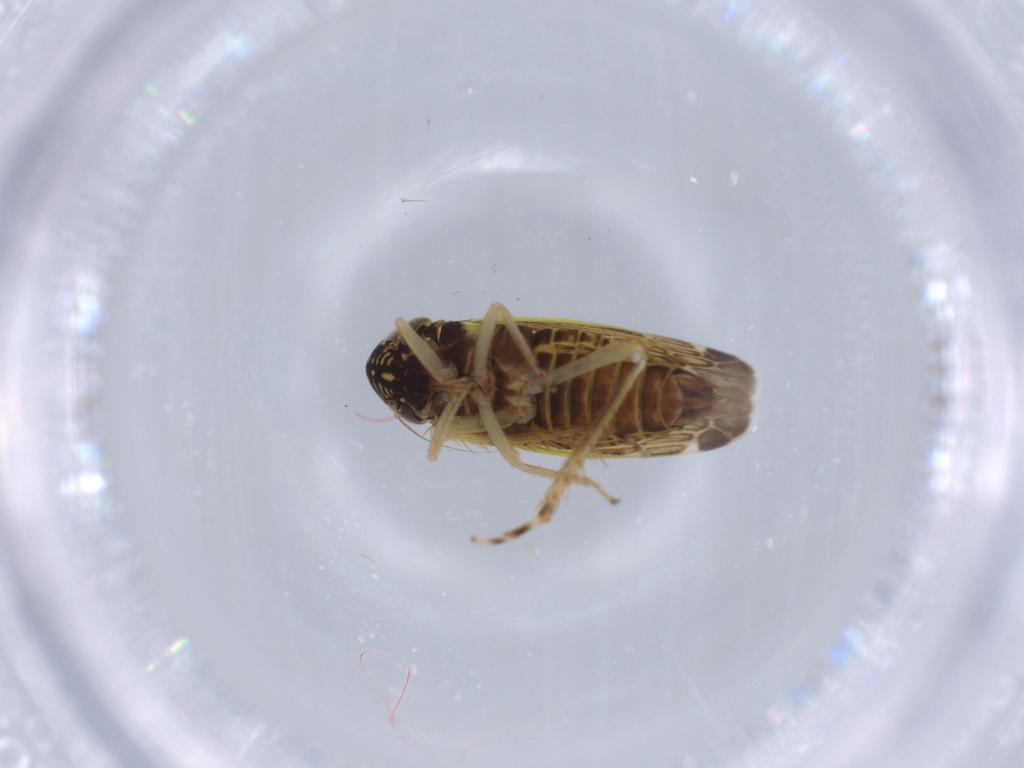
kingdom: Animalia
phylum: Arthropoda
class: Insecta
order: Hemiptera
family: Cicadellidae
